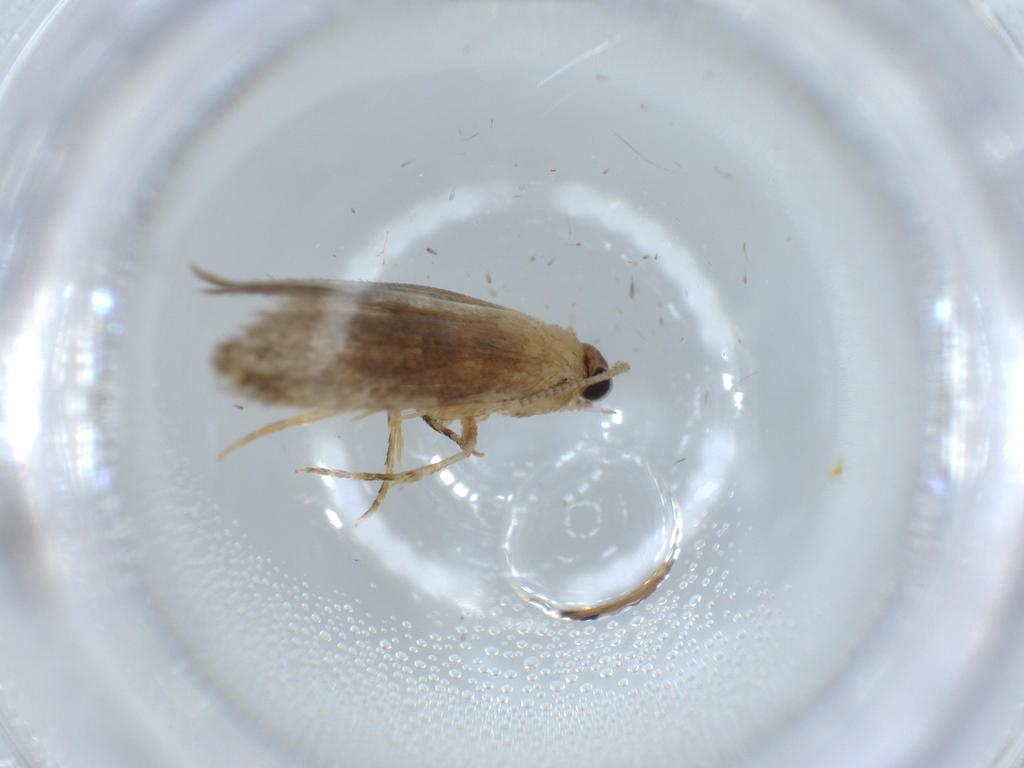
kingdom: Animalia
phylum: Arthropoda
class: Insecta
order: Lepidoptera
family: Tineidae
